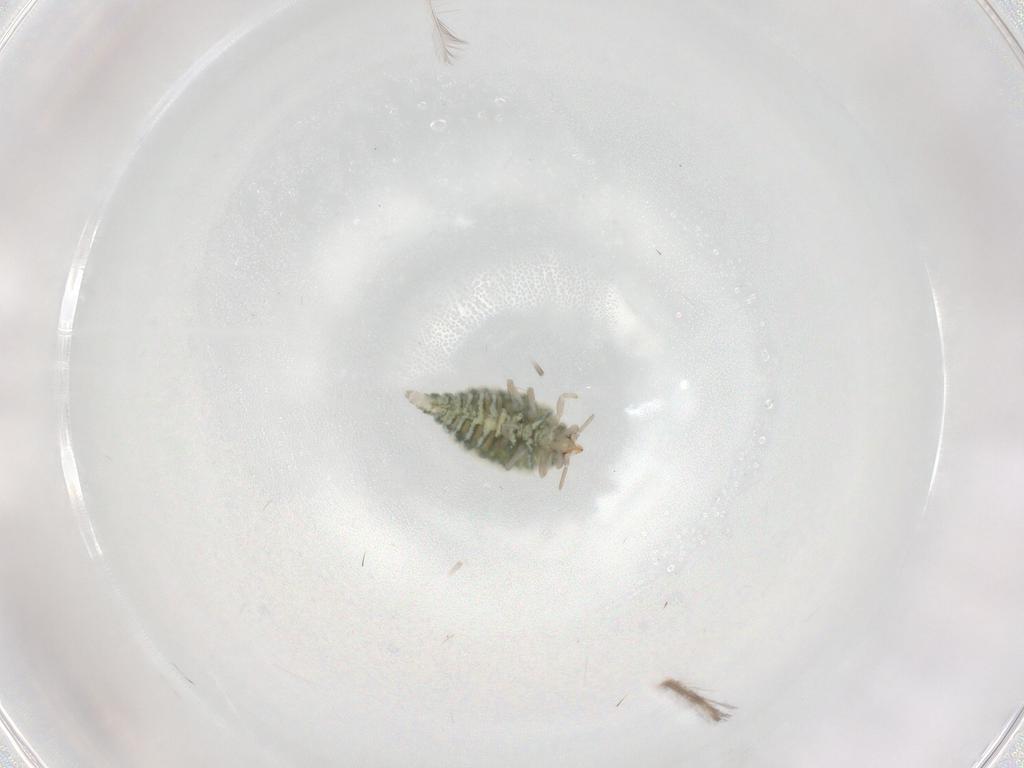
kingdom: Animalia
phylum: Arthropoda
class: Insecta
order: Neuroptera
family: Coniopterygidae
